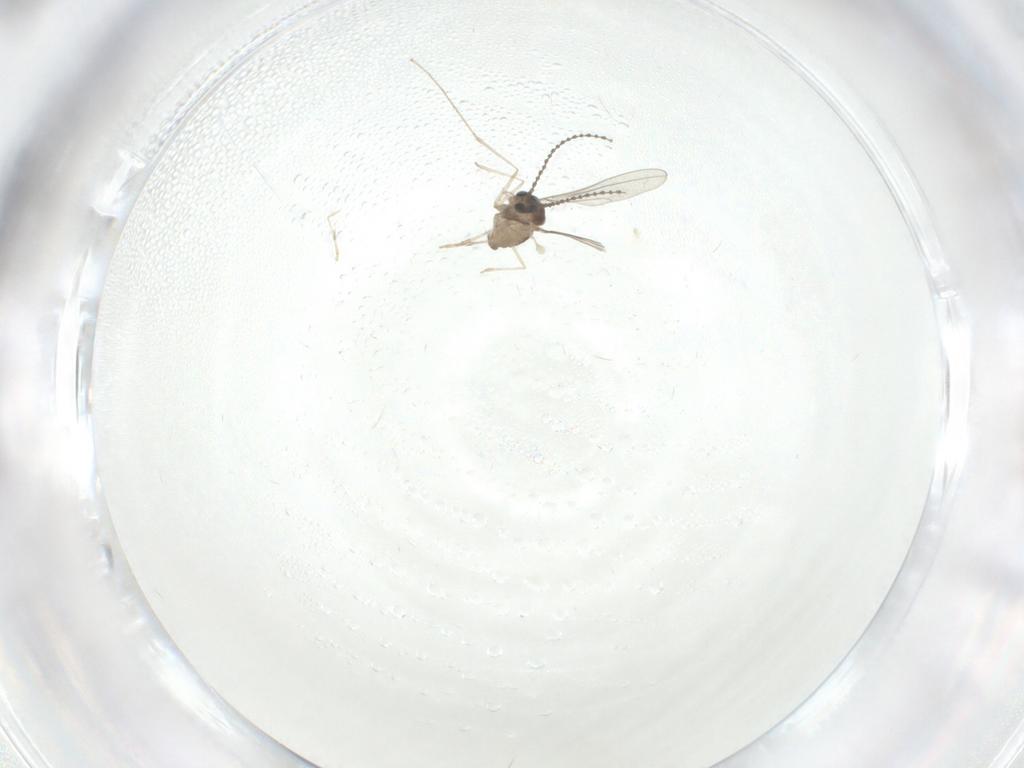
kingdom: Animalia
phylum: Arthropoda
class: Insecta
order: Diptera
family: Cecidomyiidae
